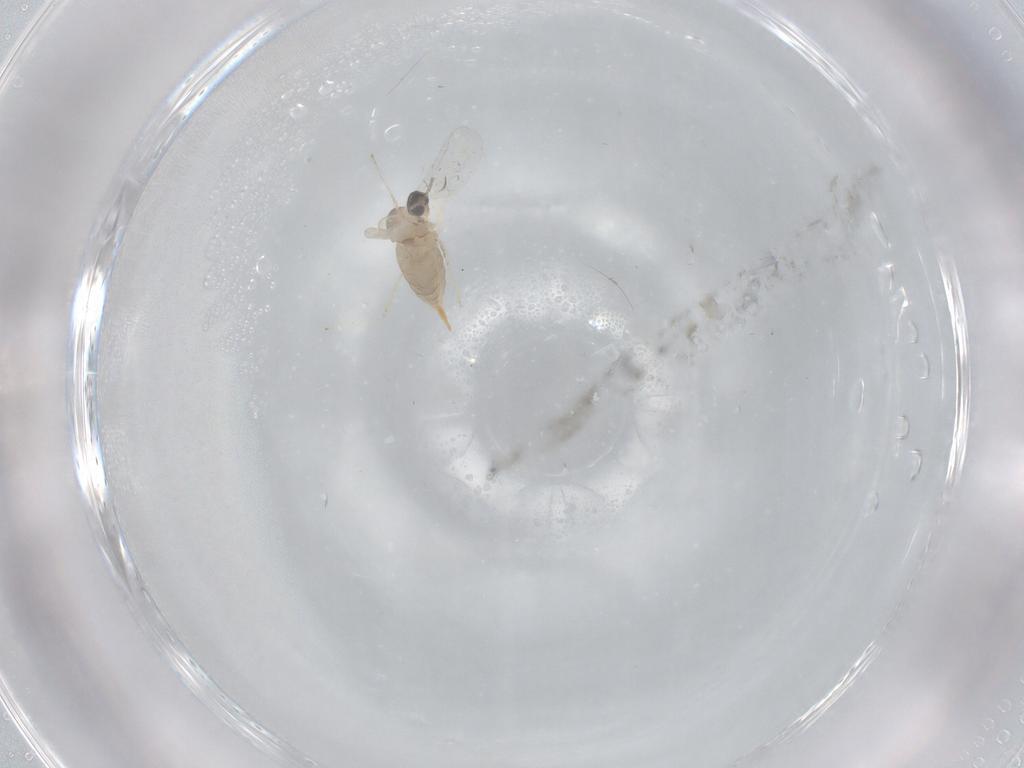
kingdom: Animalia
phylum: Arthropoda
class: Insecta
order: Diptera
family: Cecidomyiidae
